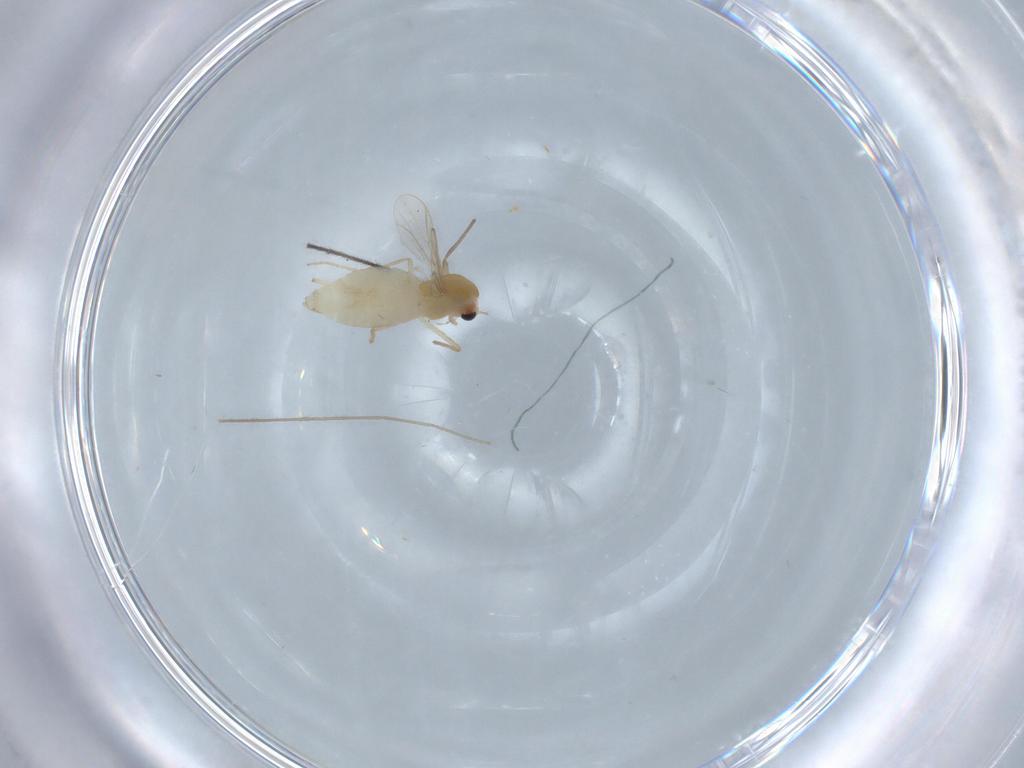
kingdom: Animalia
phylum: Arthropoda
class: Insecta
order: Diptera
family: Chironomidae
